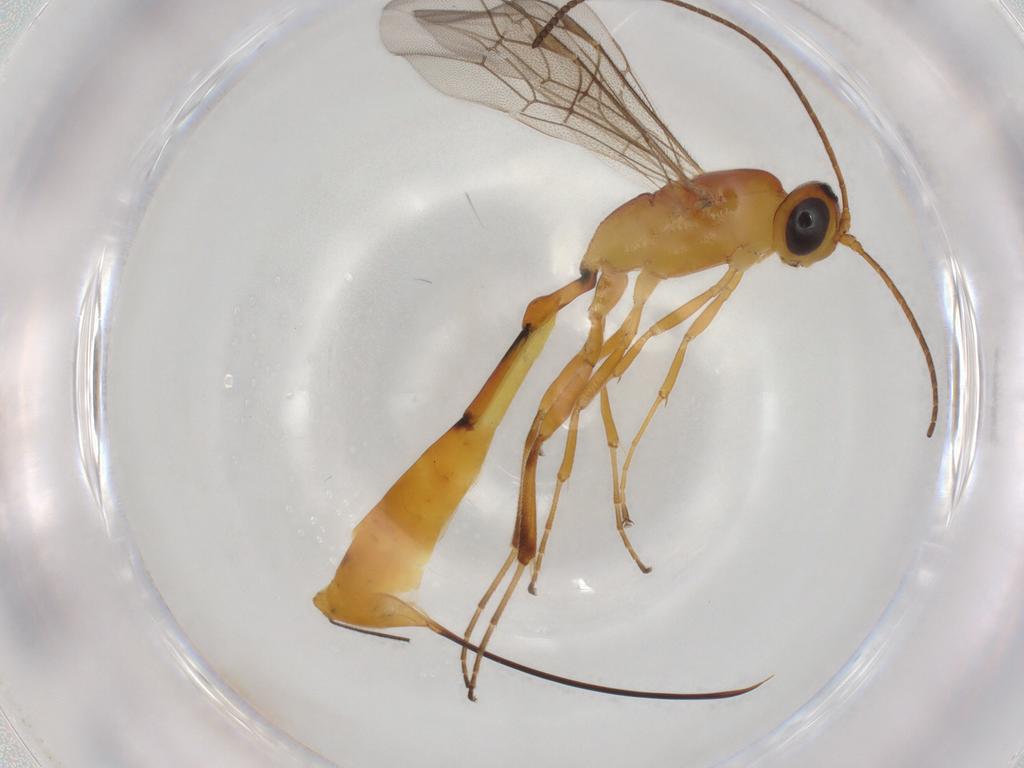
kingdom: Animalia
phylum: Arthropoda
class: Insecta
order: Hymenoptera
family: Ichneumonidae
